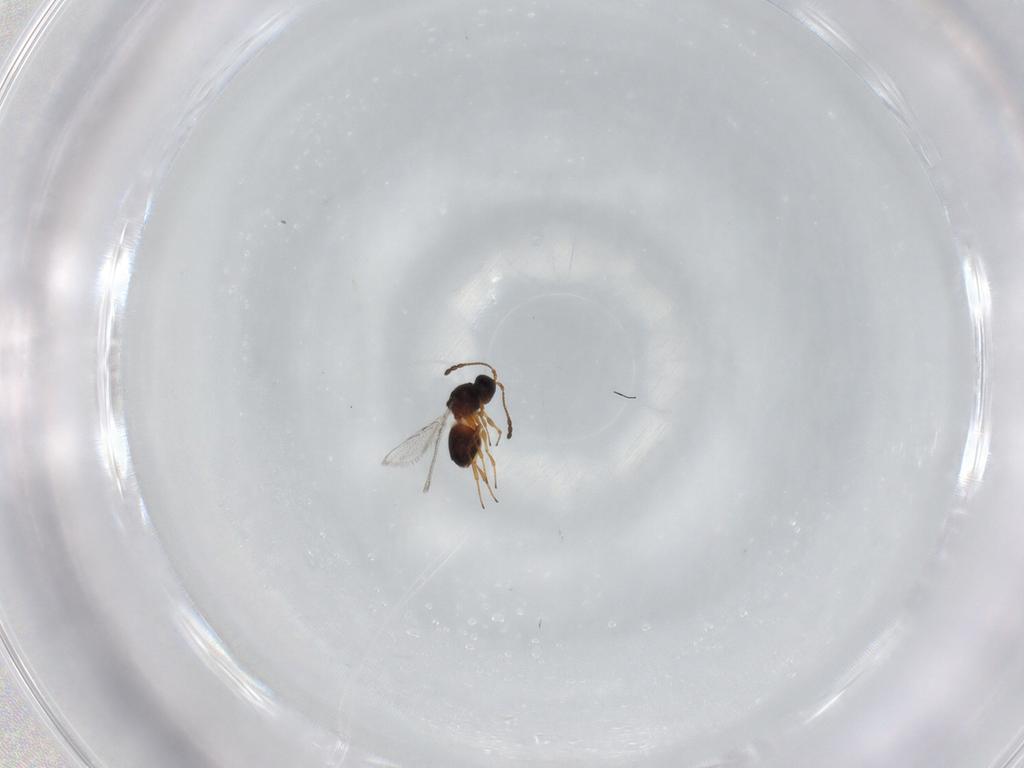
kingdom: Animalia
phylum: Arthropoda
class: Insecta
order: Hymenoptera
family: Figitidae
